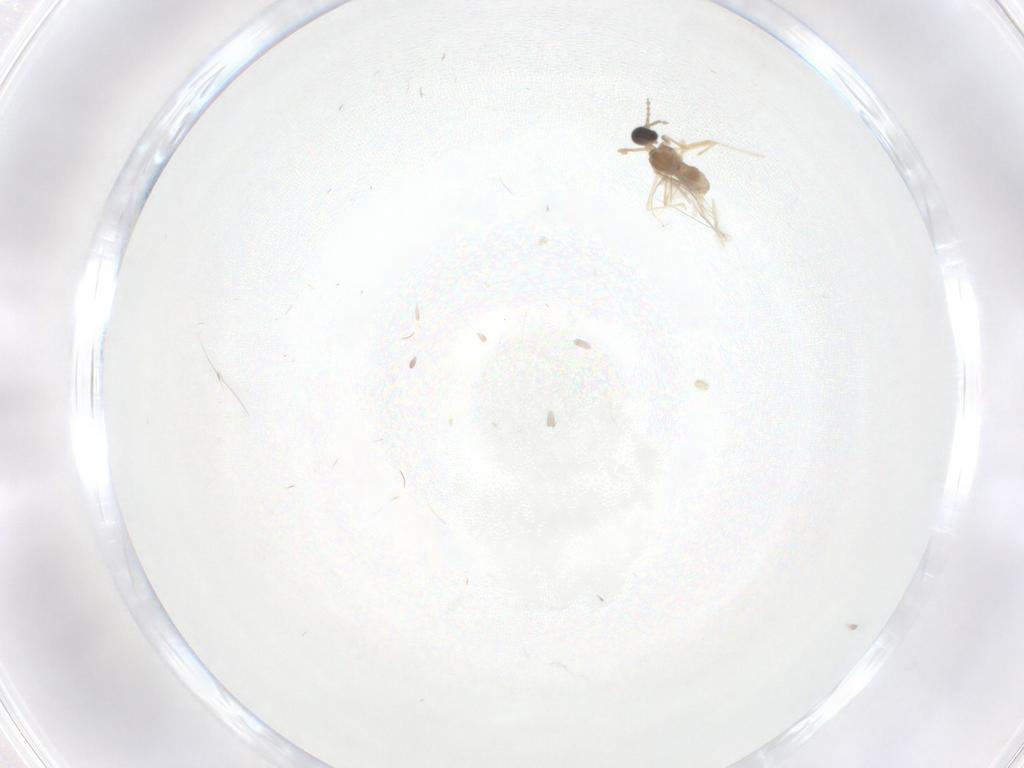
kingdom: Animalia
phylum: Arthropoda
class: Insecta
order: Diptera
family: Cecidomyiidae
